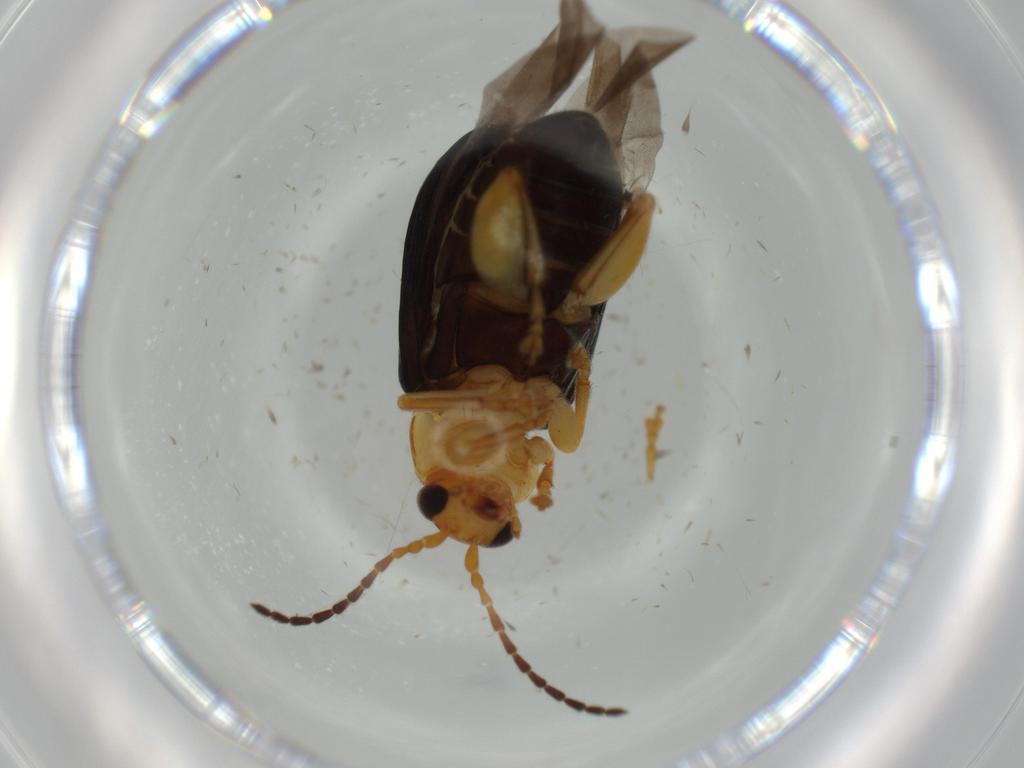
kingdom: Animalia
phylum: Arthropoda
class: Insecta
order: Coleoptera
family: Chrysomelidae
